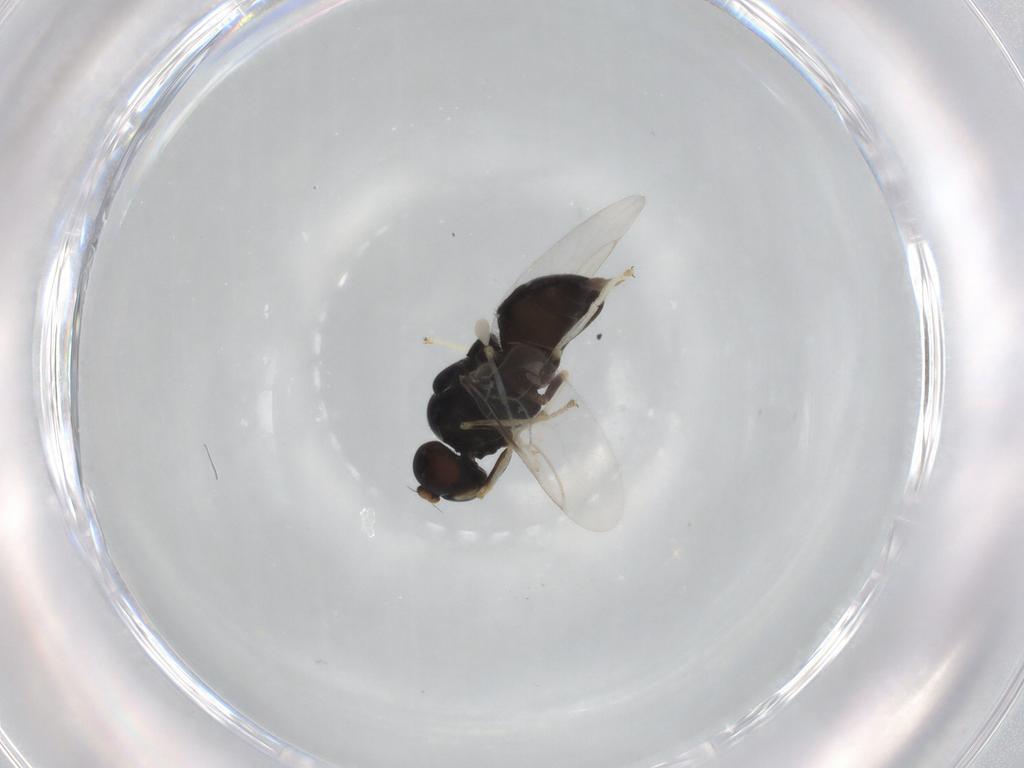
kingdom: Animalia
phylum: Arthropoda
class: Insecta
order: Diptera
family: Stratiomyidae
